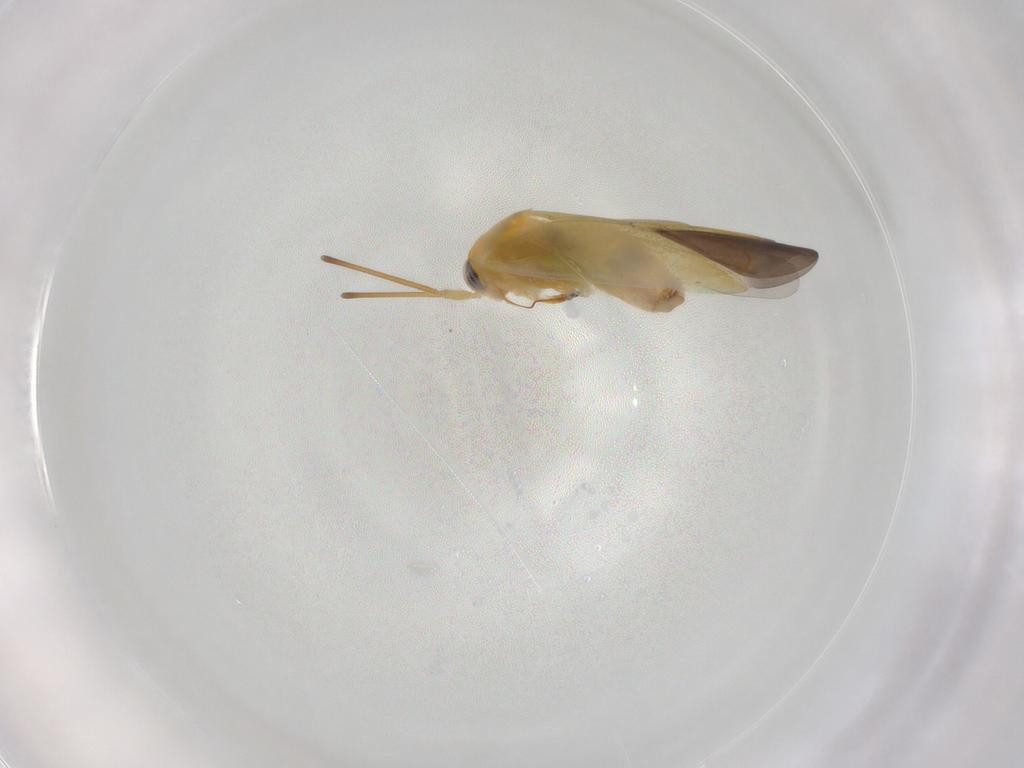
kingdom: Animalia
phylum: Arthropoda
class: Insecta
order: Hemiptera
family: Miridae
